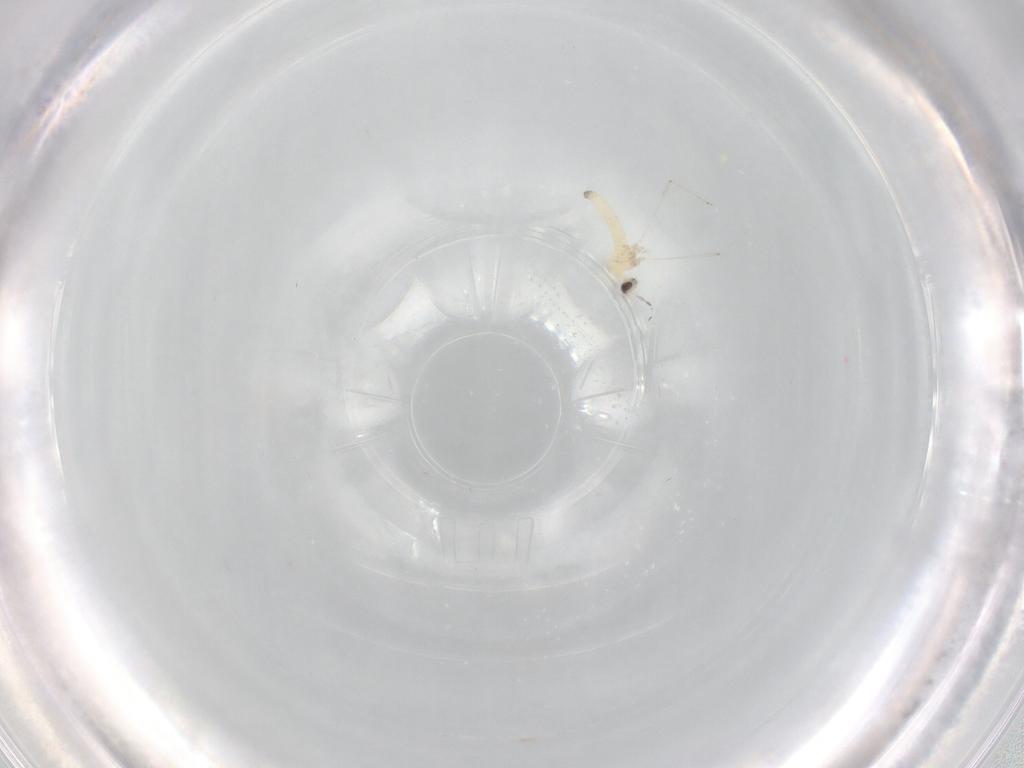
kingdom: Animalia
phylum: Arthropoda
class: Insecta
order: Diptera
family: Cecidomyiidae
